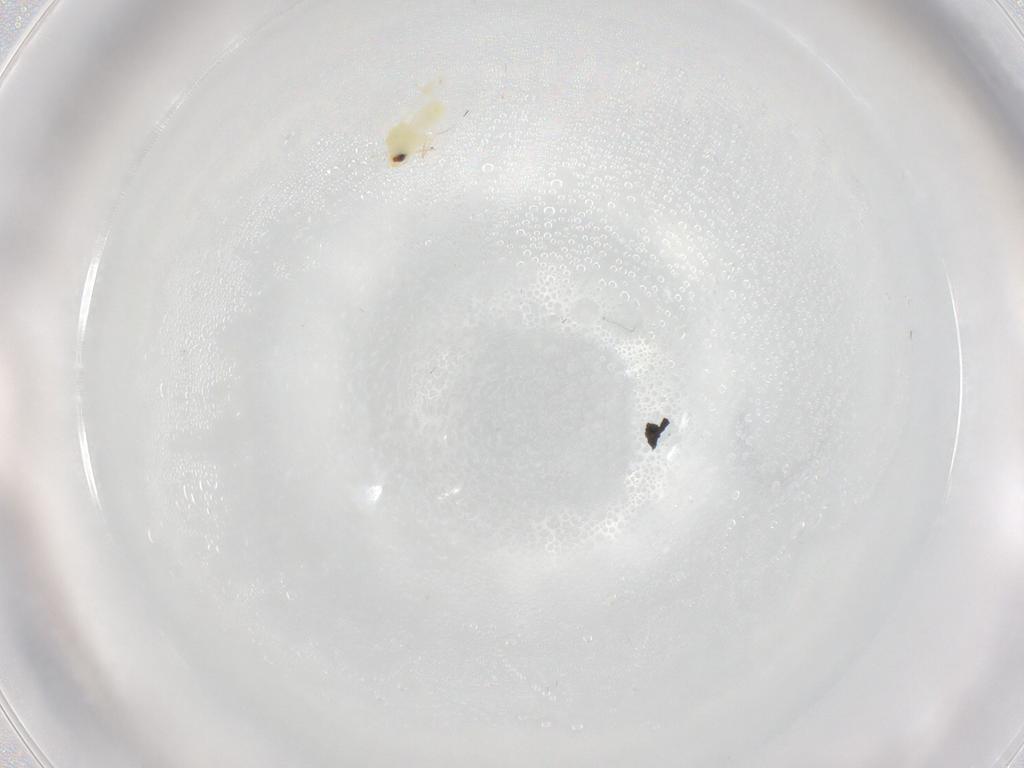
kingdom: Animalia
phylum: Arthropoda
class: Insecta
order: Hemiptera
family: Aleyrodidae
